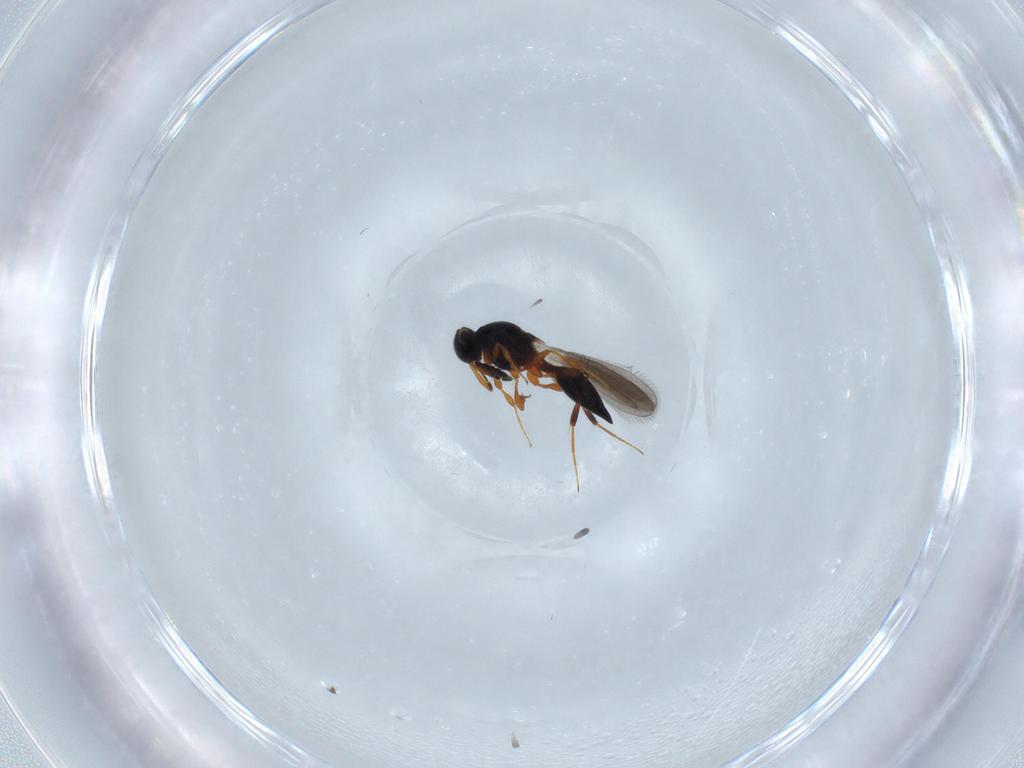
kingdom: Animalia
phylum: Arthropoda
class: Insecta
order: Hymenoptera
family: Platygastridae
